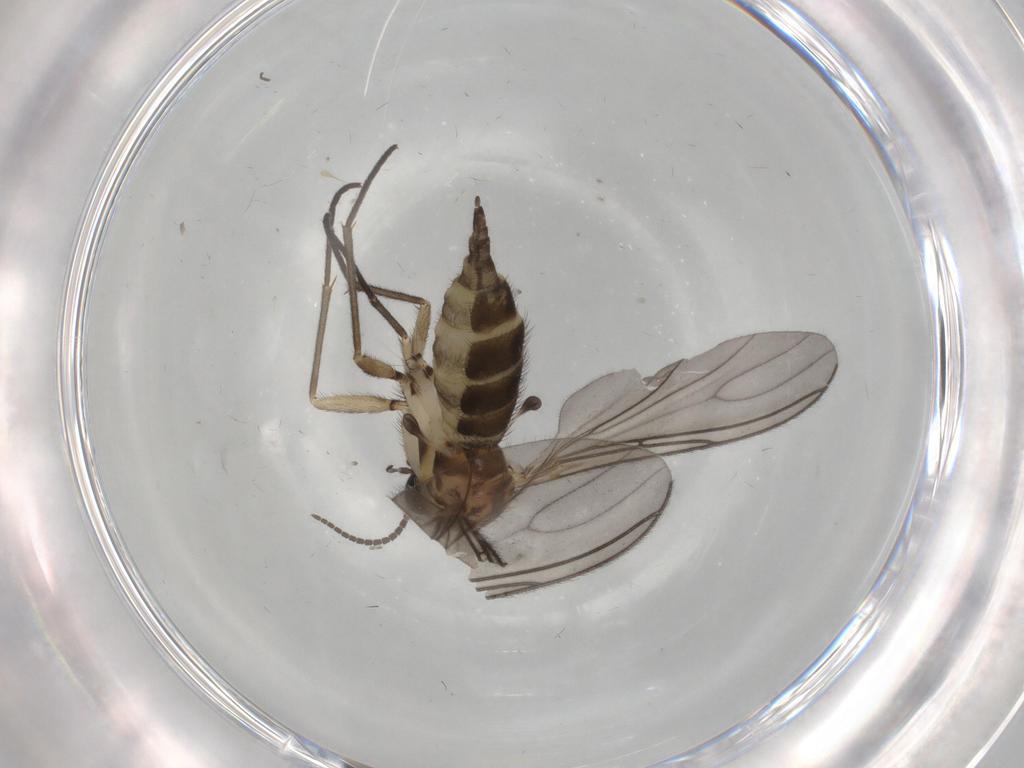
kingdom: Animalia
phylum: Arthropoda
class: Insecta
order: Diptera
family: Sciaridae
